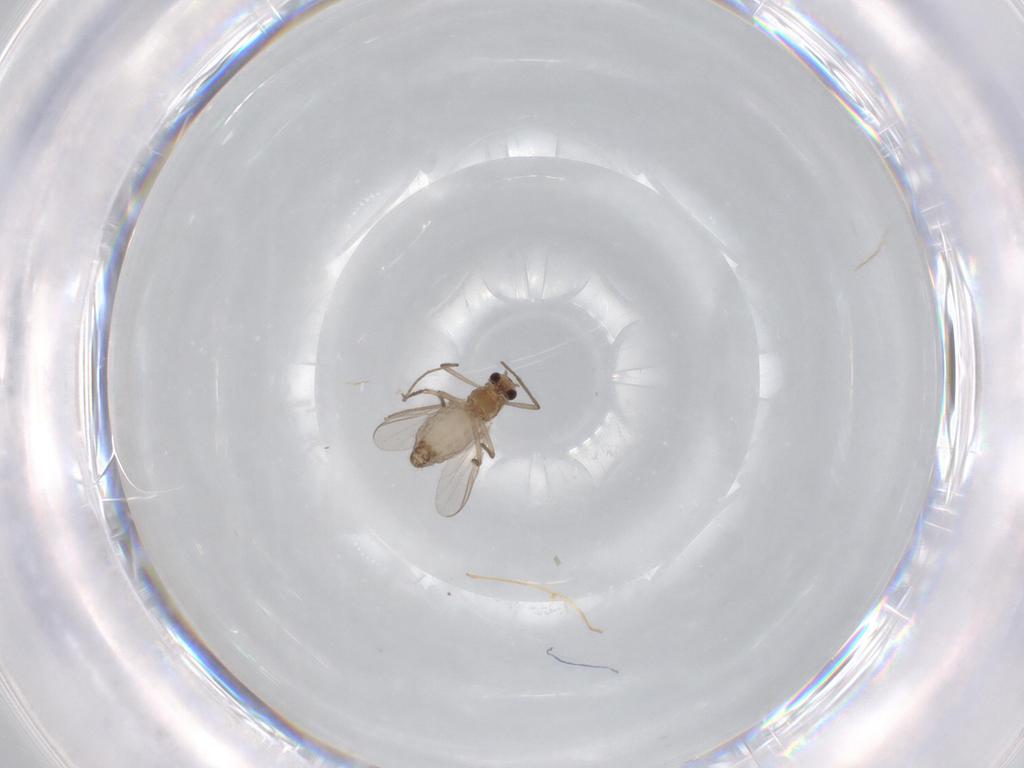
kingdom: Animalia
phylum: Arthropoda
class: Insecta
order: Diptera
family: Chironomidae
